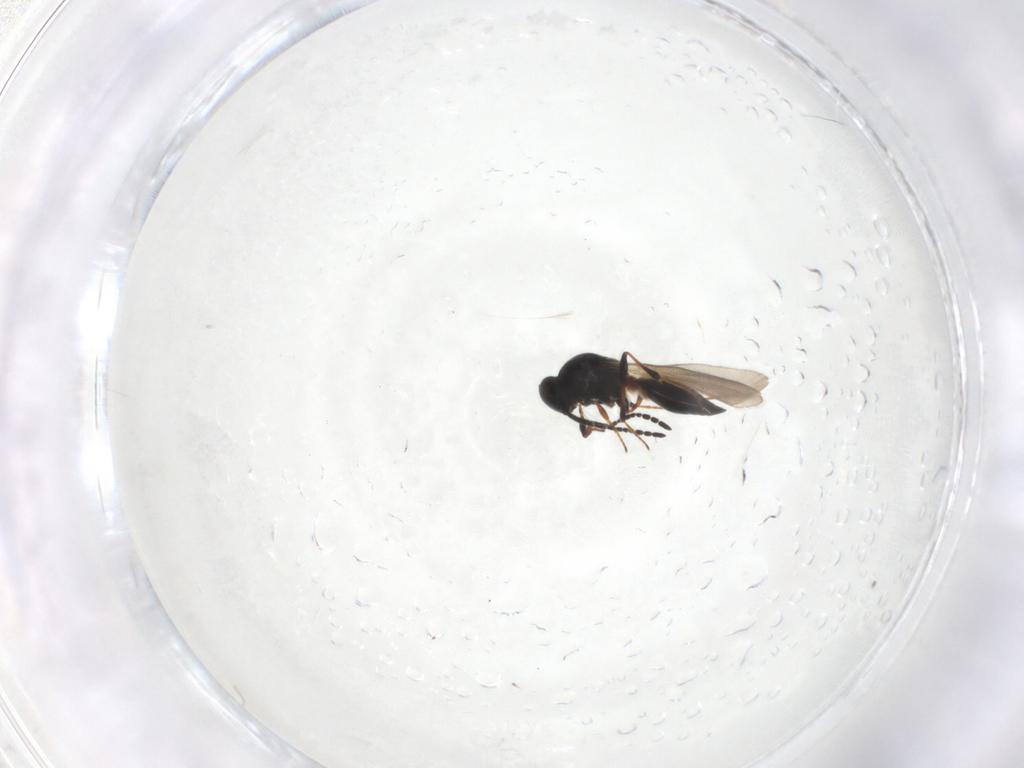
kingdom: Animalia
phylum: Arthropoda
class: Insecta
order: Hymenoptera
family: Platygastridae
